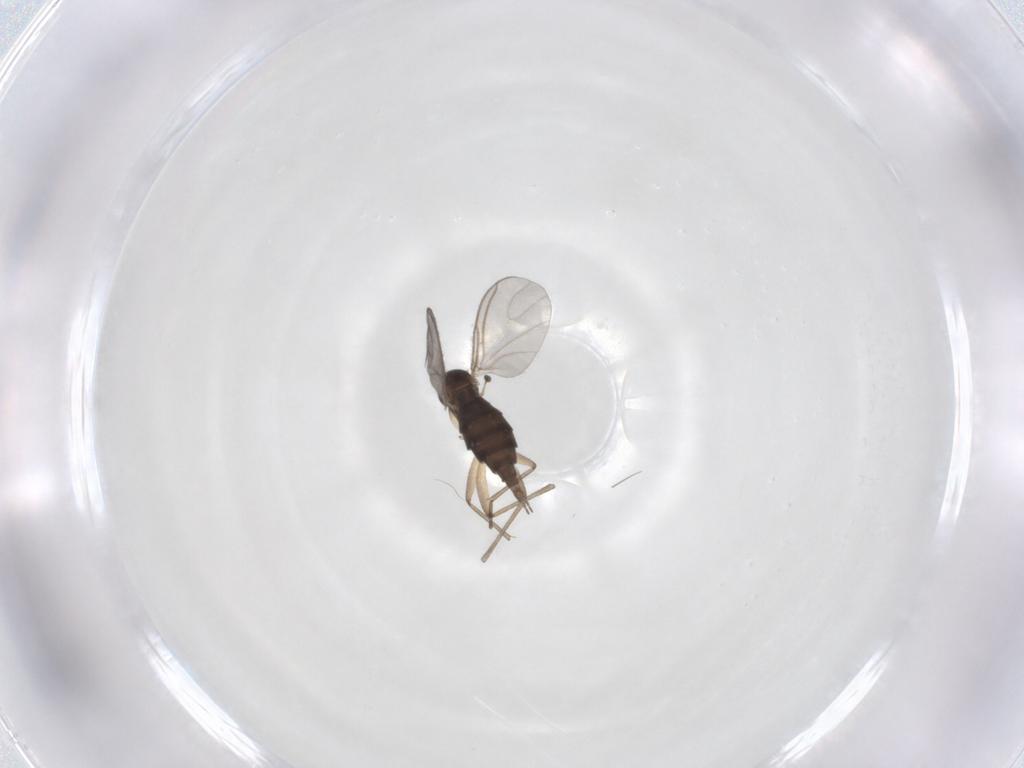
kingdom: Animalia
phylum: Arthropoda
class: Insecta
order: Diptera
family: Sciaridae
